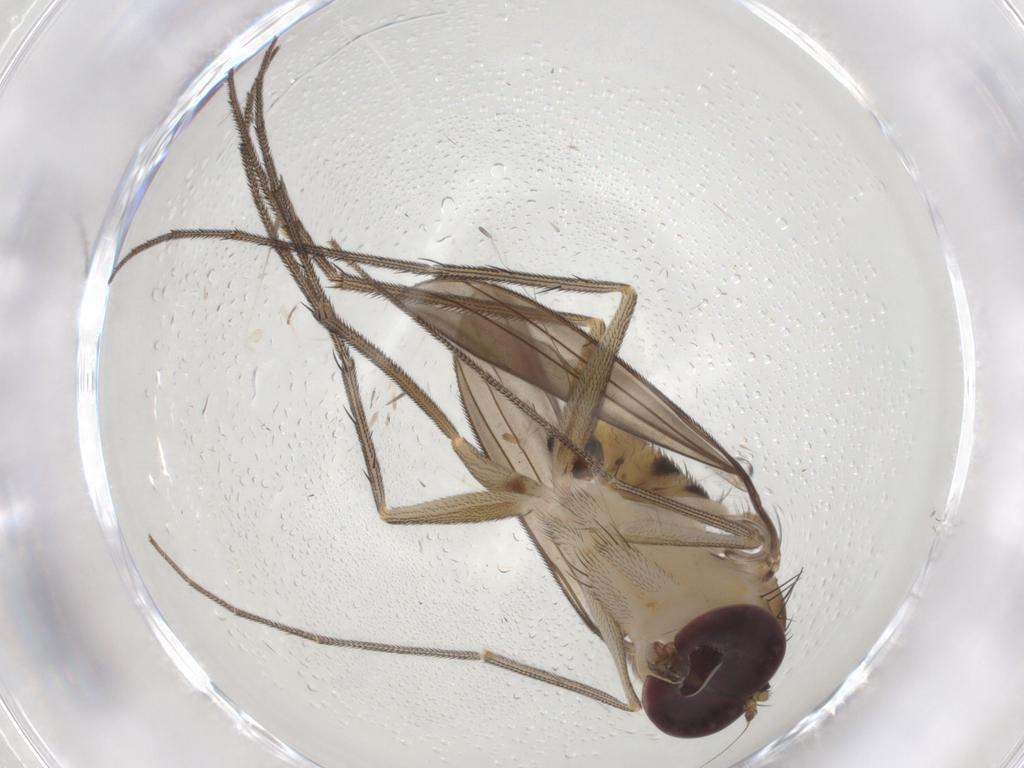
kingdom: Animalia
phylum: Arthropoda
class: Insecta
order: Diptera
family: Dolichopodidae
